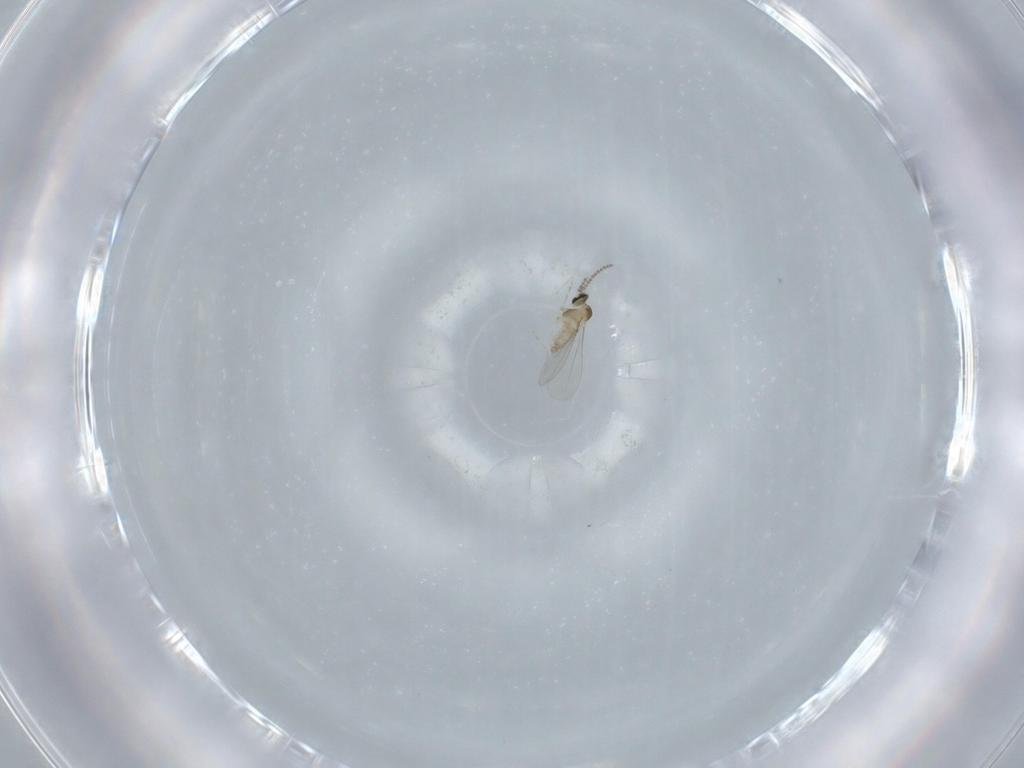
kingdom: Animalia
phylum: Arthropoda
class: Insecta
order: Diptera
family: Cecidomyiidae
